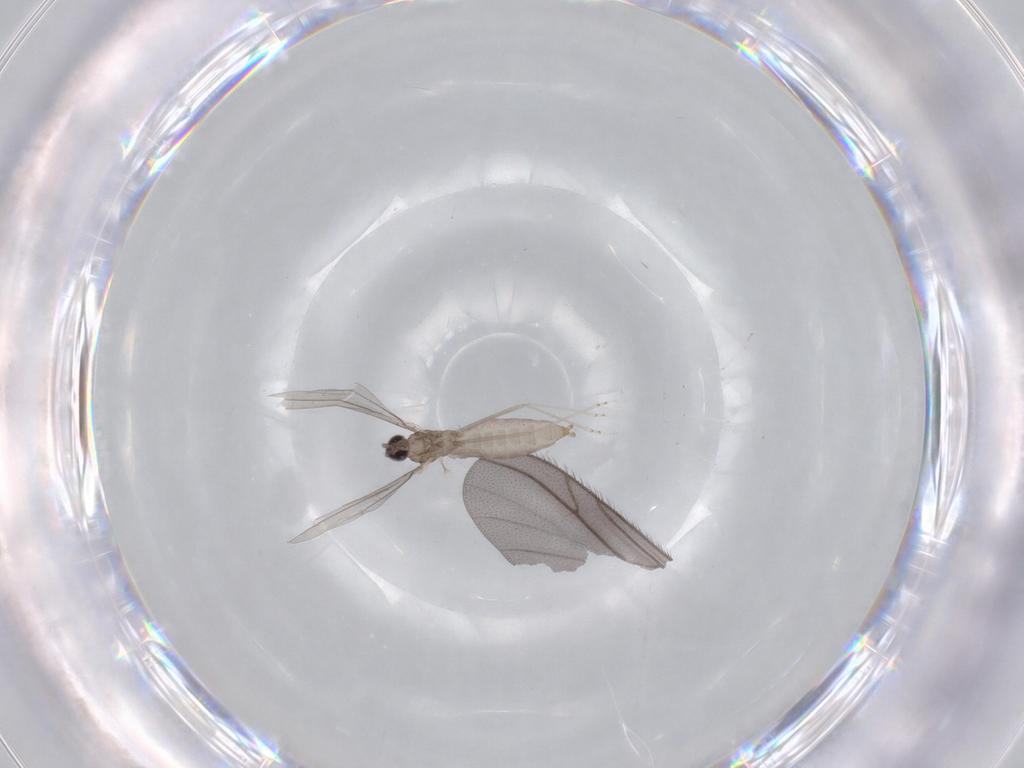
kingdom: Animalia
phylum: Arthropoda
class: Insecta
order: Diptera
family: Cecidomyiidae
